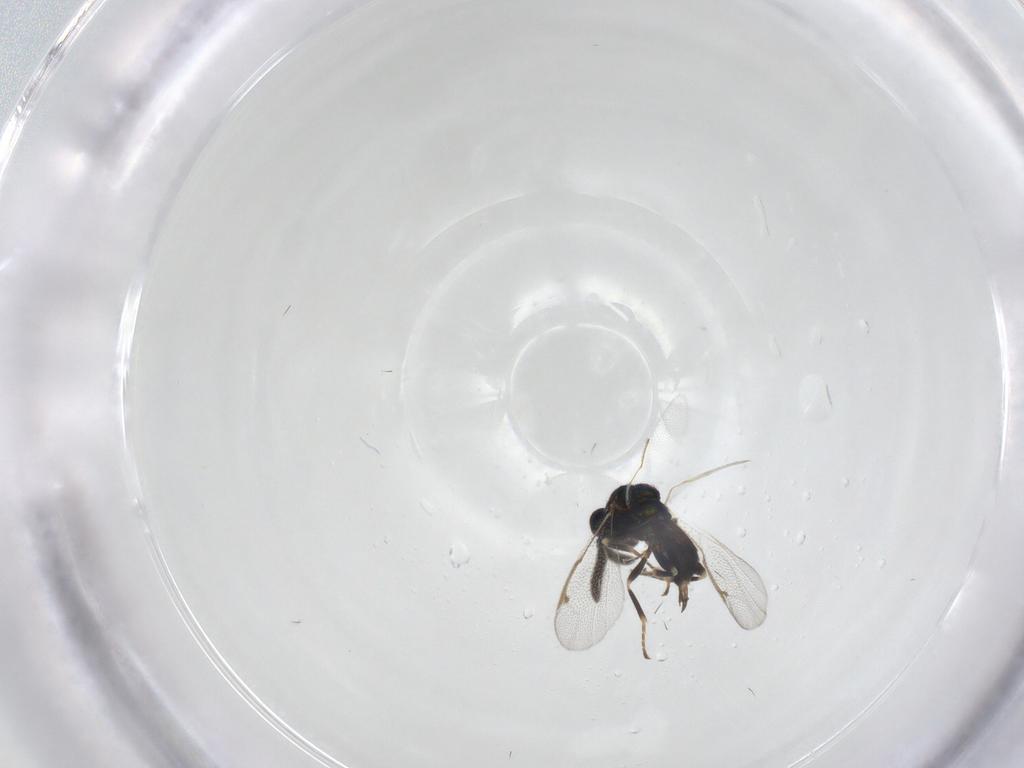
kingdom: Animalia
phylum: Arthropoda
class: Insecta
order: Hymenoptera
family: Torymidae
